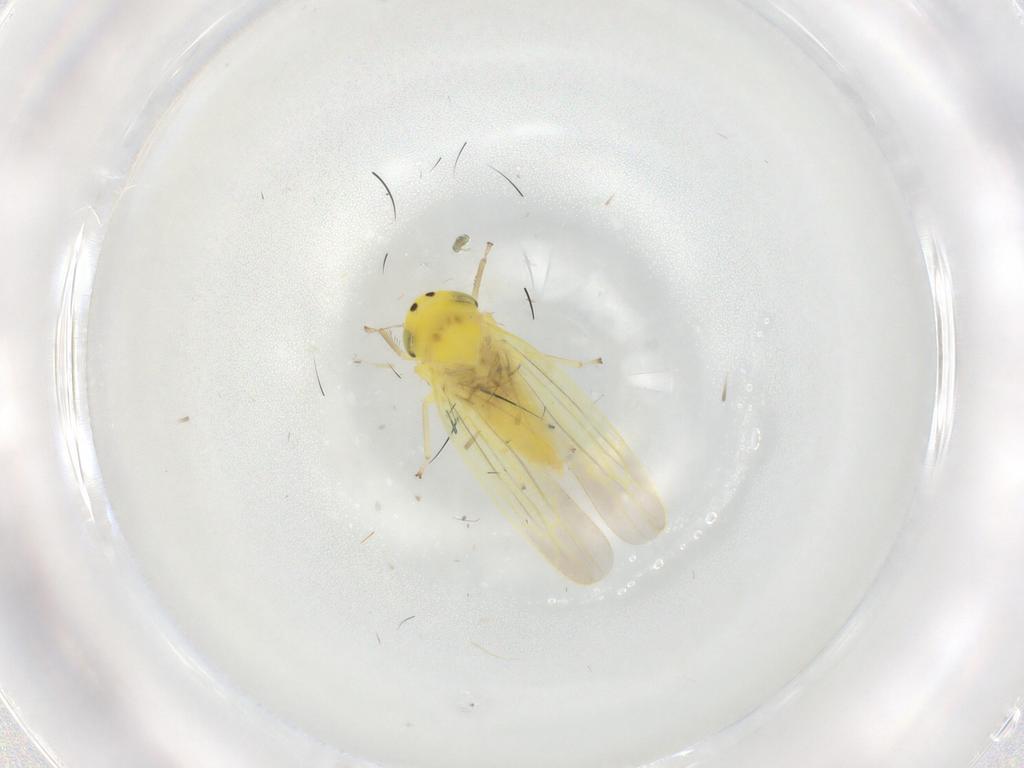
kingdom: Animalia
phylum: Arthropoda
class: Insecta
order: Hemiptera
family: Cicadellidae
